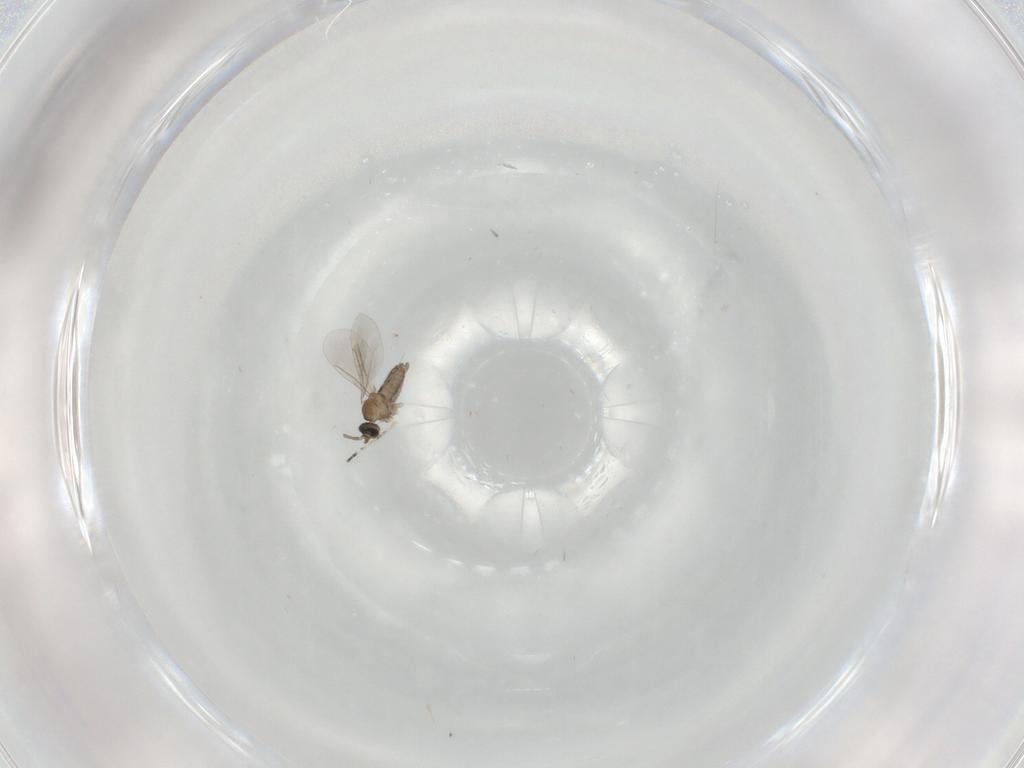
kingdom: Animalia
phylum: Arthropoda
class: Insecta
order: Diptera
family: Cecidomyiidae
